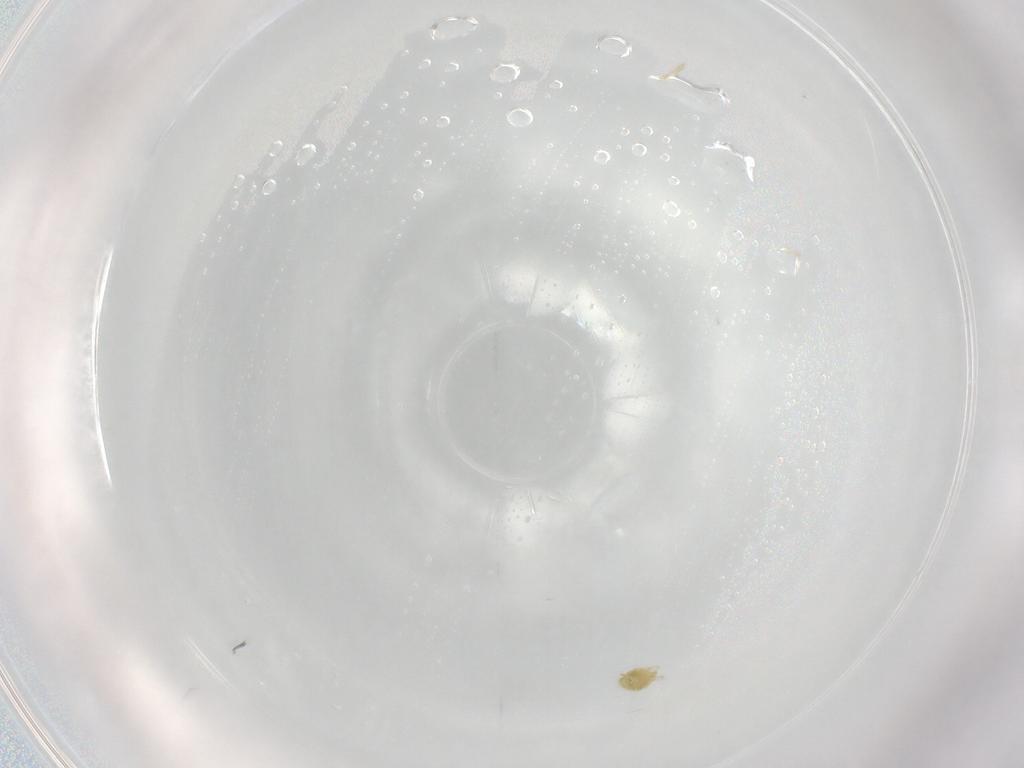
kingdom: Animalia
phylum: Arthropoda
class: Arachnida
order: Trombidiformes
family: Tetranychidae
